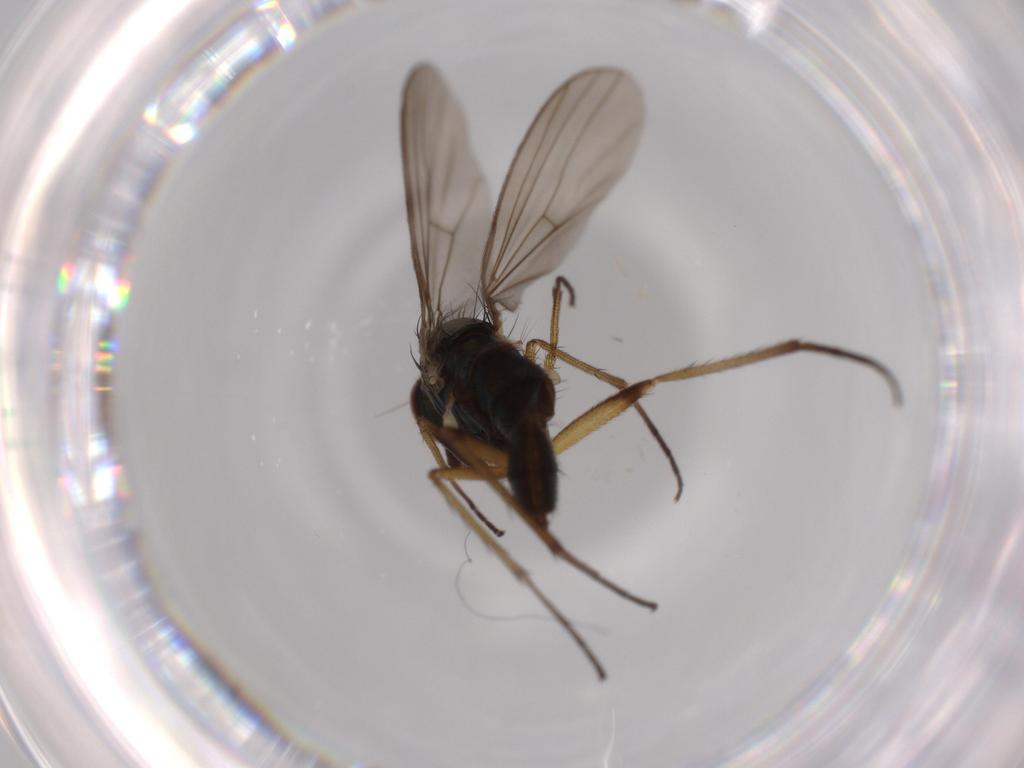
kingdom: Animalia
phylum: Arthropoda
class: Insecta
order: Diptera
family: Dolichopodidae
